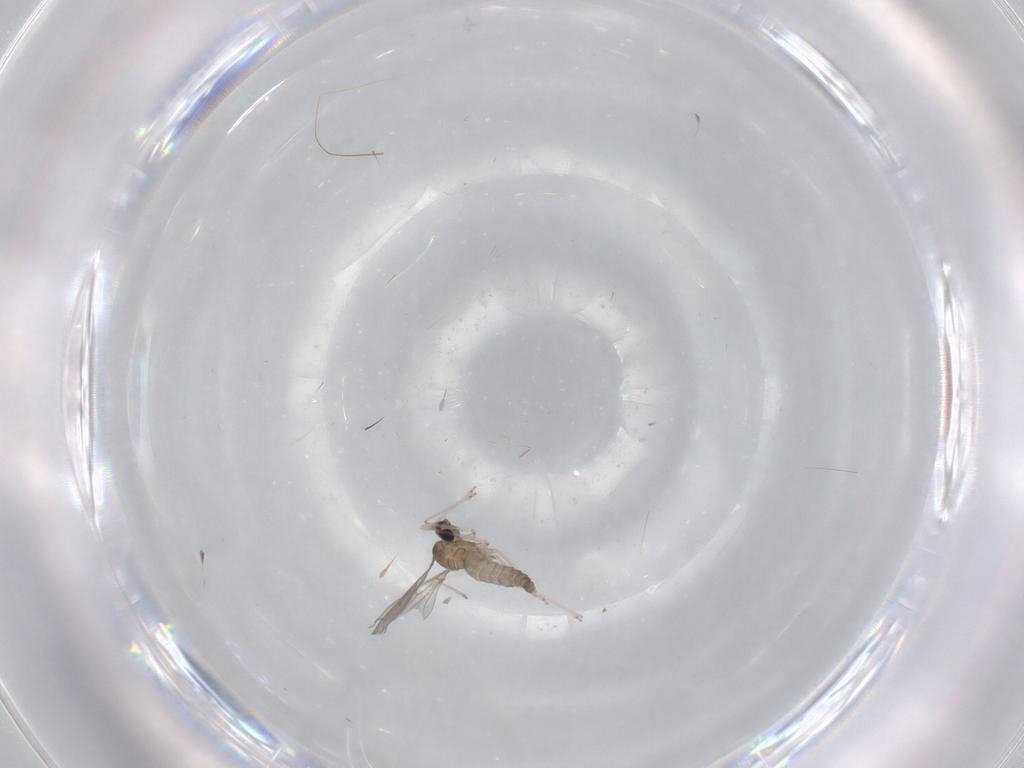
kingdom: Animalia
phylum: Arthropoda
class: Insecta
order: Diptera
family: Cecidomyiidae
